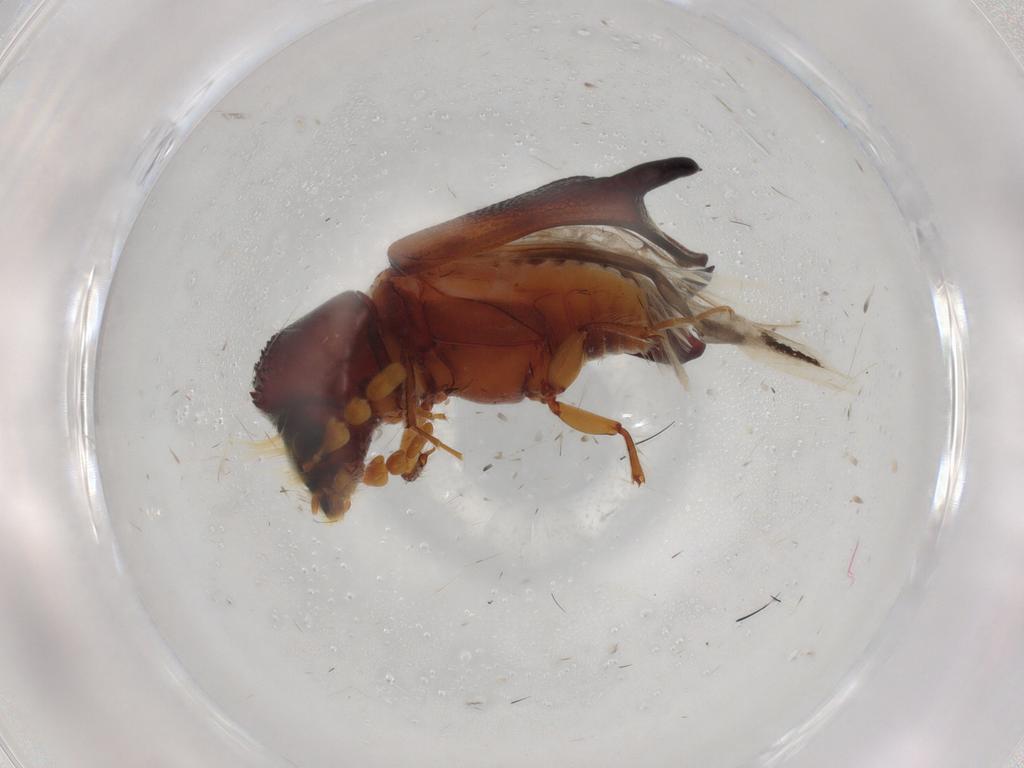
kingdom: Animalia
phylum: Arthropoda
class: Insecta
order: Coleoptera
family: Bostrichidae
